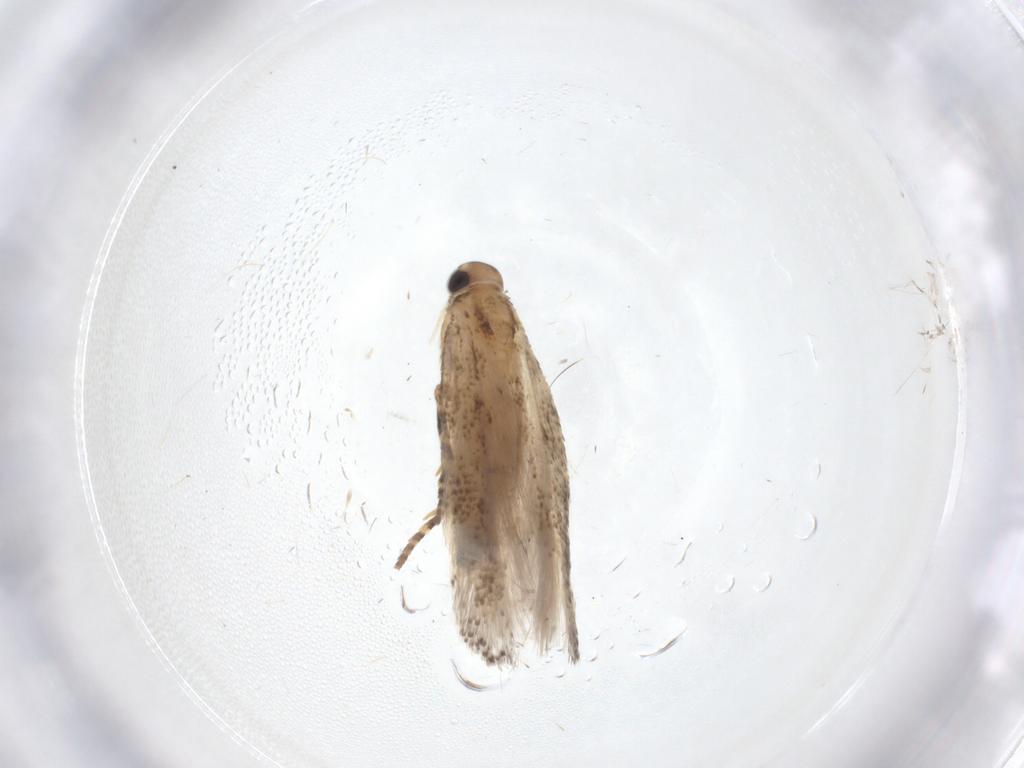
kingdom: Animalia
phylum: Arthropoda
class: Insecta
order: Lepidoptera
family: Gelechiidae
